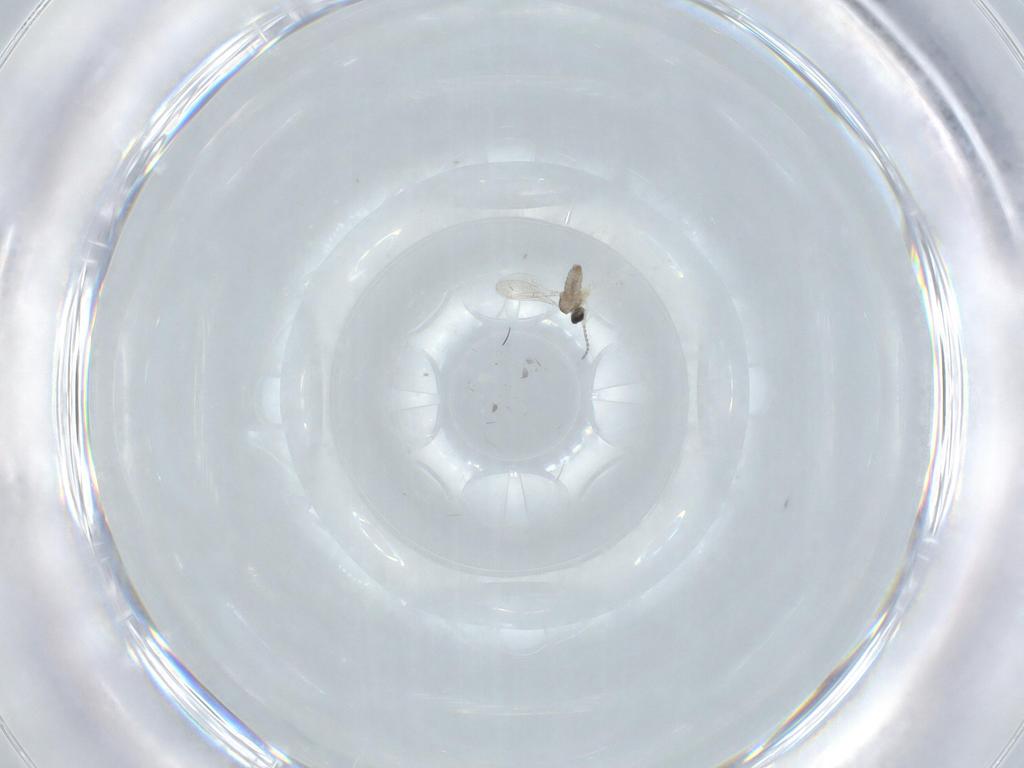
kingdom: Animalia
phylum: Arthropoda
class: Insecta
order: Diptera
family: Cecidomyiidae
